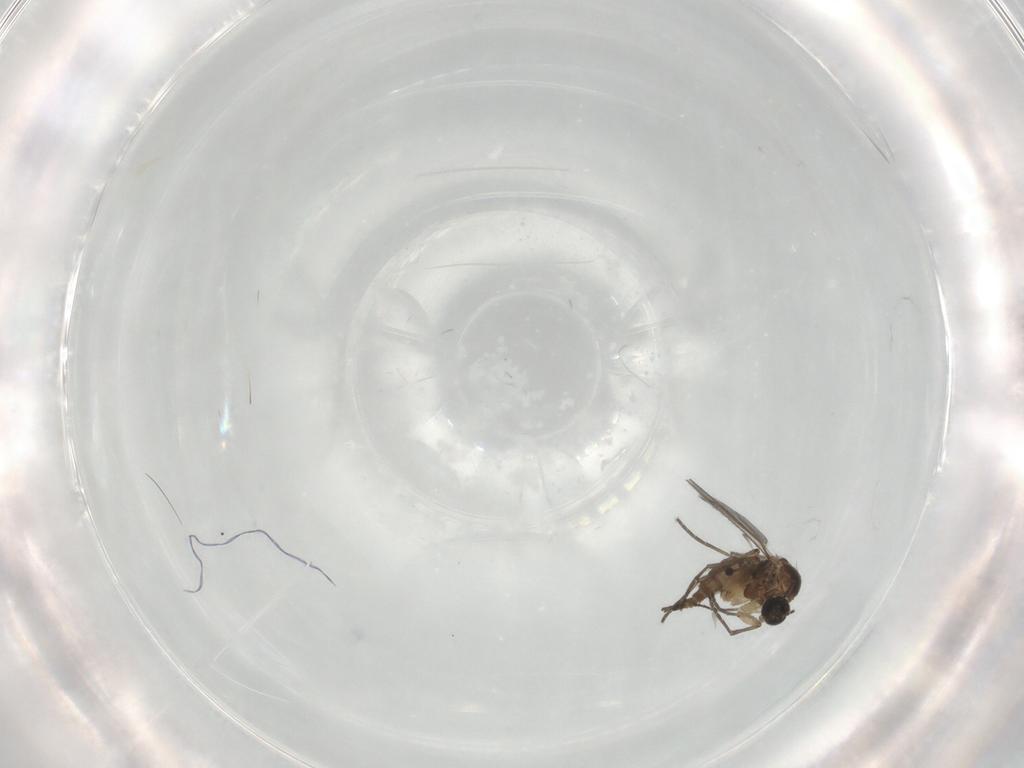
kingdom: Animalia
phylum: Arthropoda
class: Insecta
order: Diptera
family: Sciaridae
